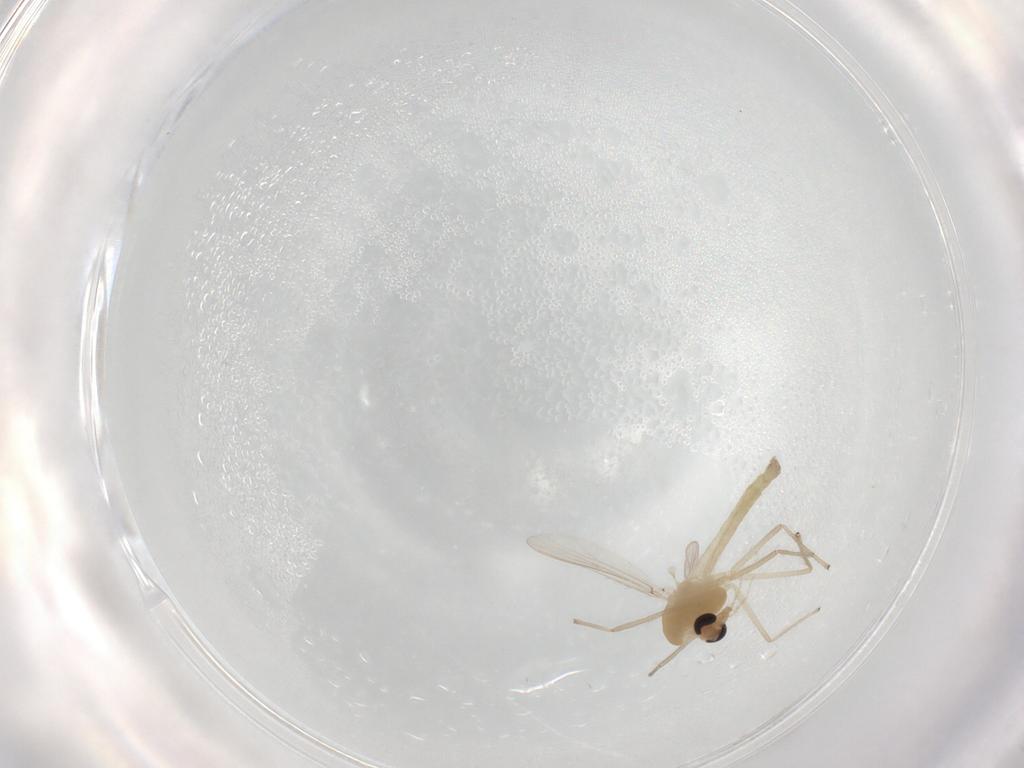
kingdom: Animalia
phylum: Arthropoda
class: Insecta
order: Diptera
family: Chironomidae
